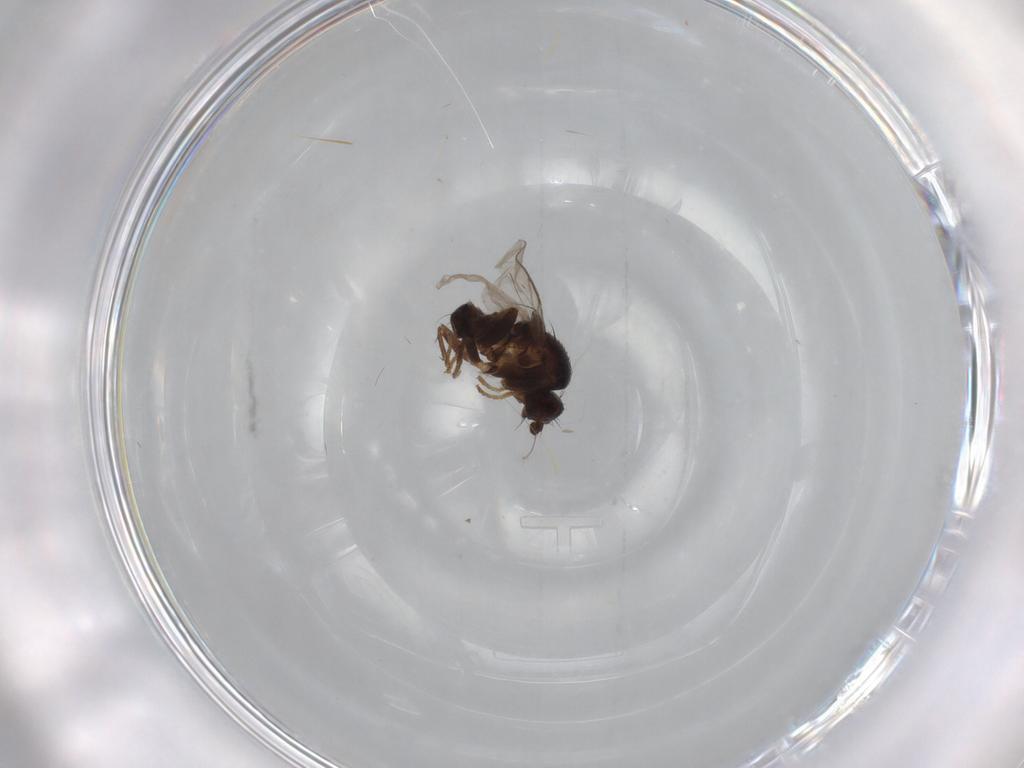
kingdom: Animalia
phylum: Arthropoda
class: Insecta
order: Diptera
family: Sphaeroceridae
